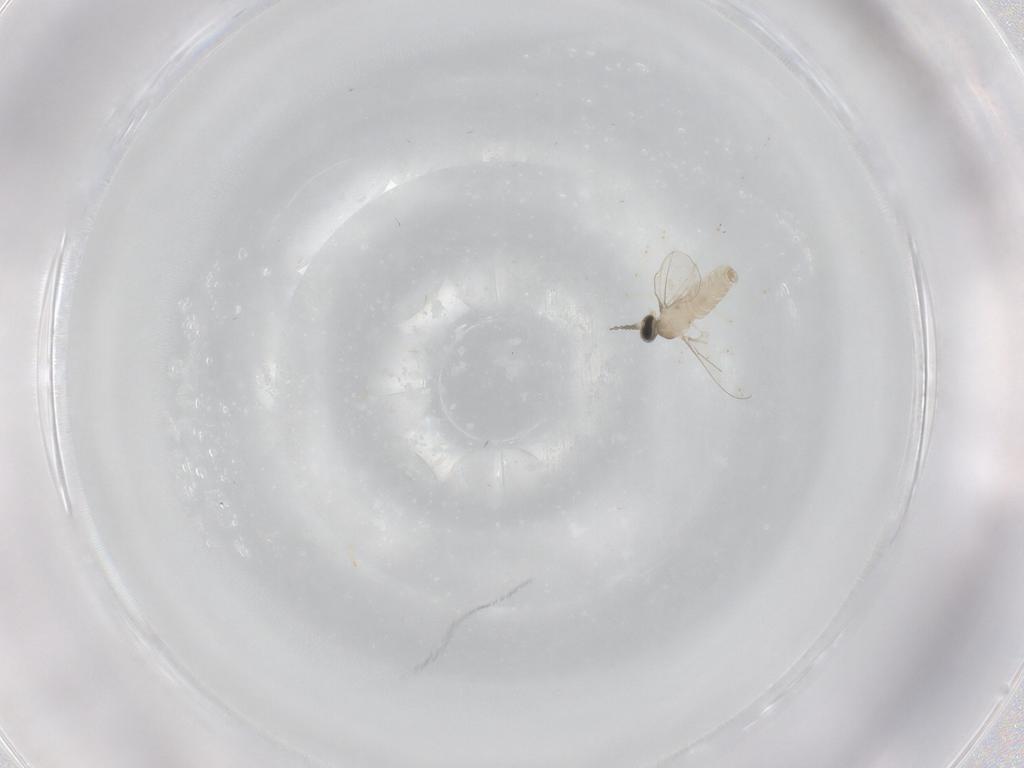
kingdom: Animalia
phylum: Arthropoda
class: Insecta
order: Diptera
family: Cecidomyiidae
